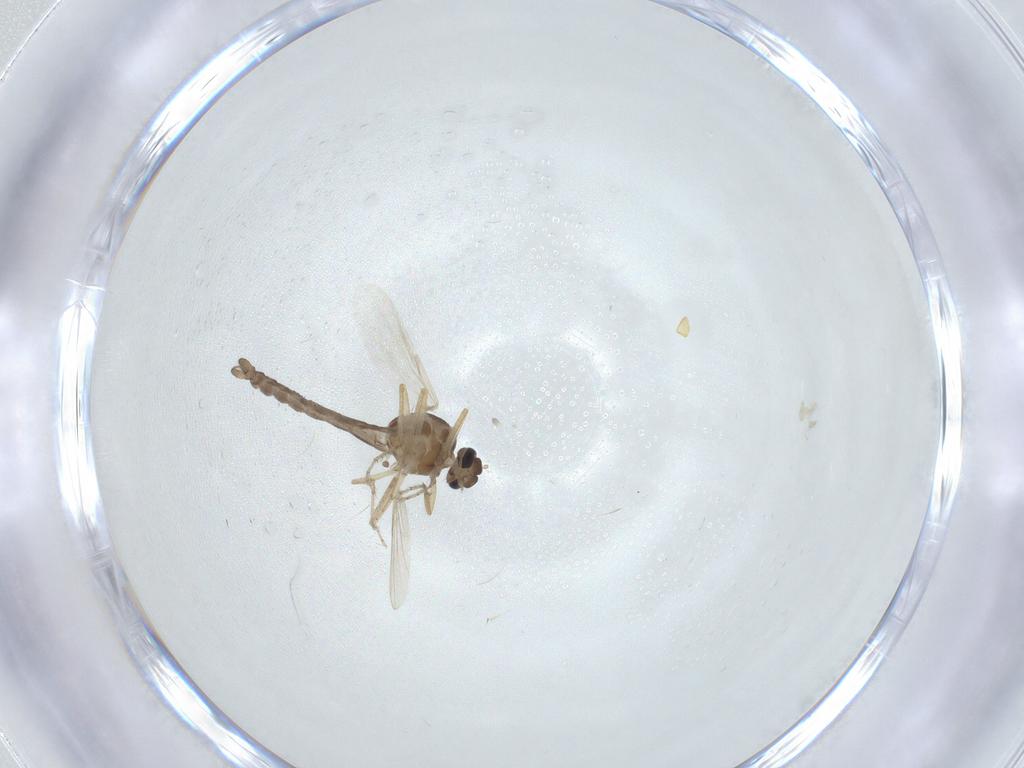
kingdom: Animalia
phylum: Arthropoda
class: Insecta
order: Diptera
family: Ceratopogonidae
